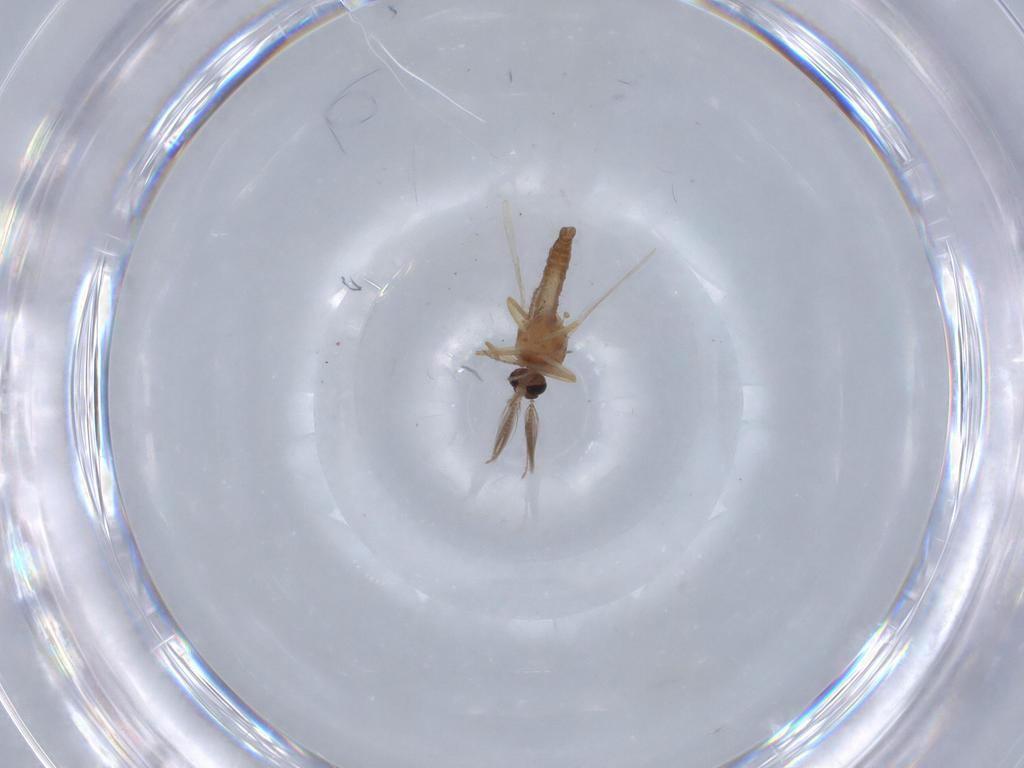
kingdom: Animalia
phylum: Arthropoda
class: Insecta
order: Diptera
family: Ceratopogonidae
